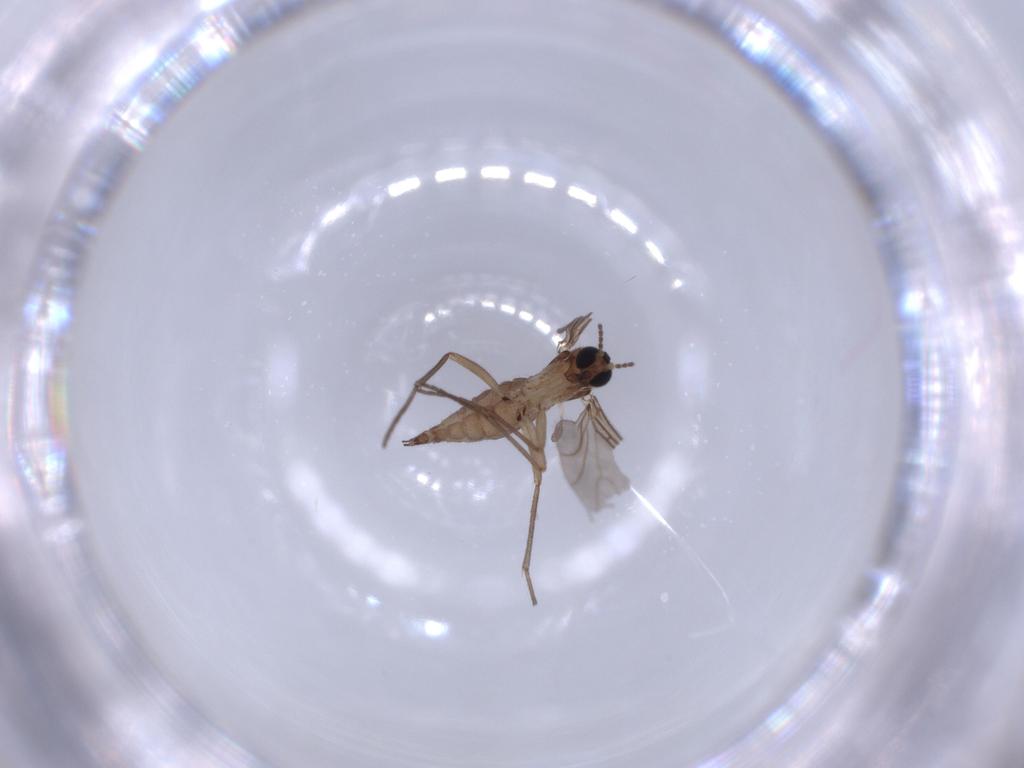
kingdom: Animalia
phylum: Arthropoda
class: Insecta
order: Diptera
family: Sciaridae
